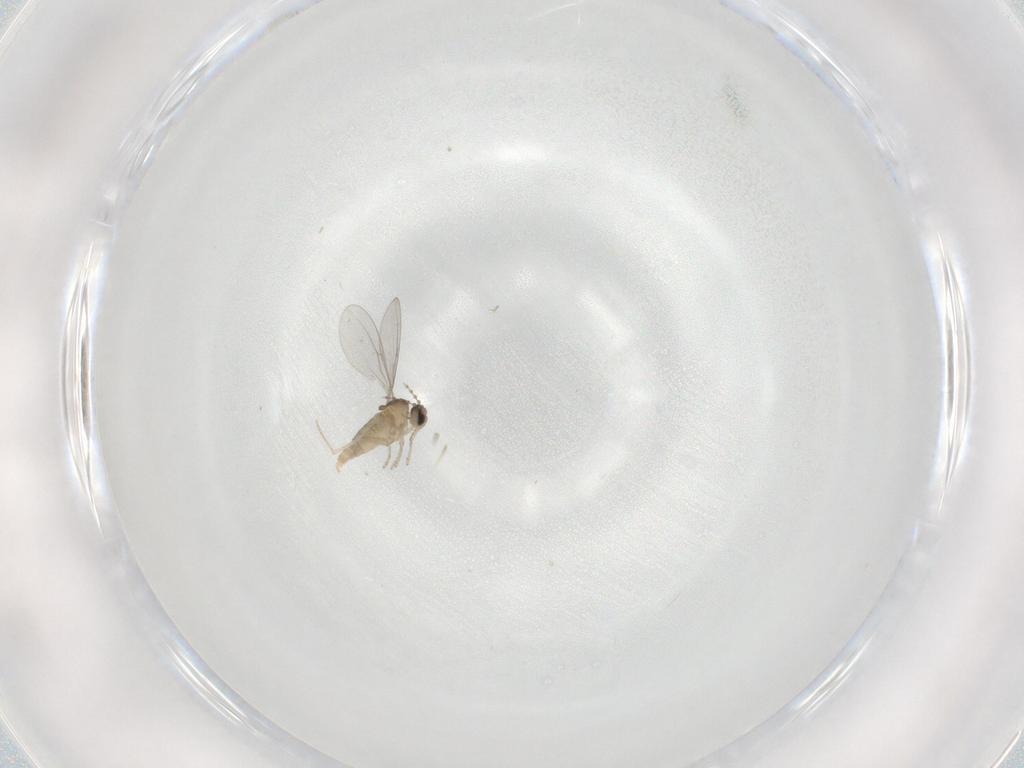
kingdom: Animalia
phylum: Arthropoda
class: Insecta
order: Diptera
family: Cecidomyiidae
